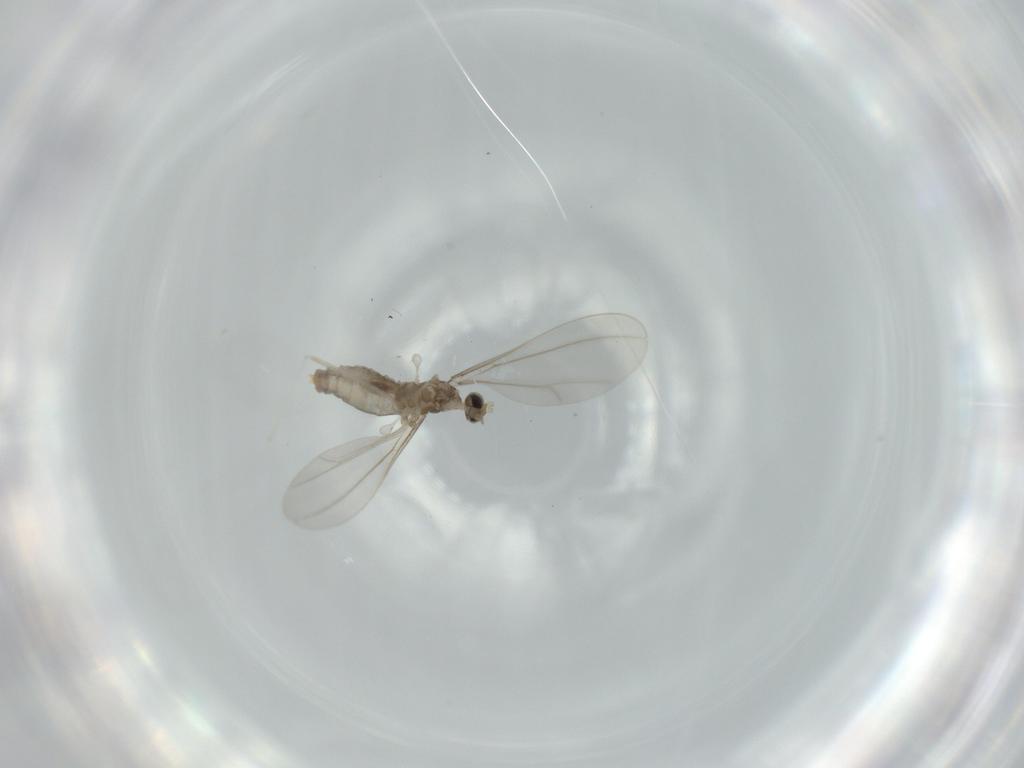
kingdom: Animalia
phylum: Arthropoda
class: Insecta
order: Diptera
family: Cecidomyiidae
